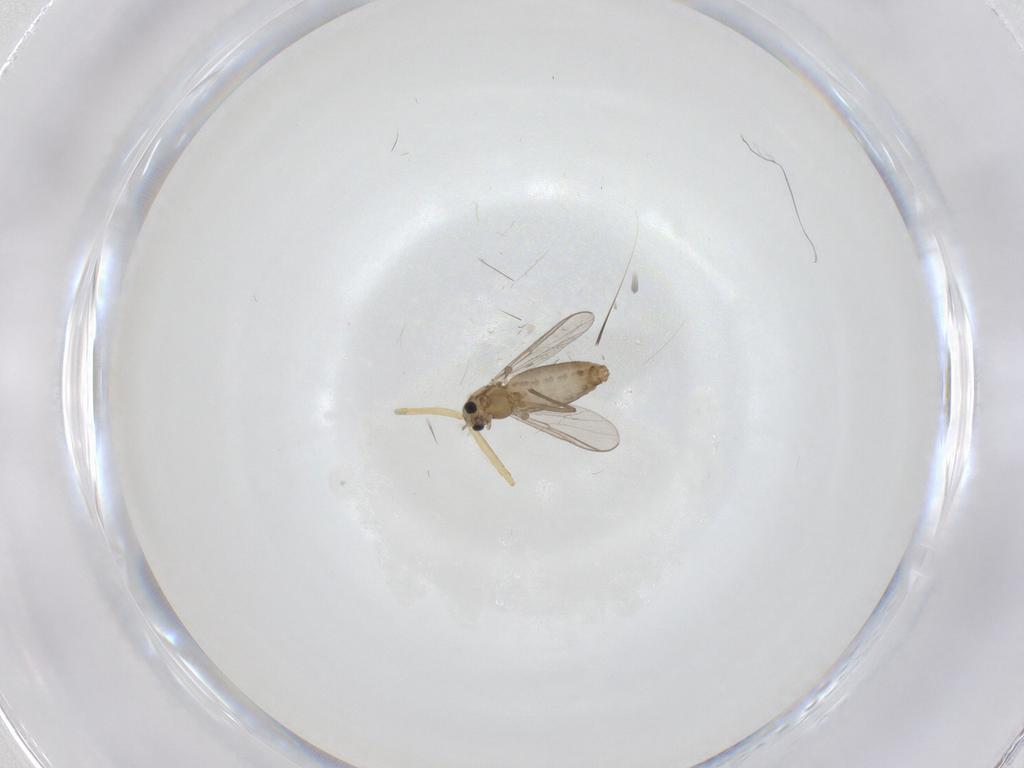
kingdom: Animalia
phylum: Arthropoda
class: Insecta
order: Diptera
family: Chironomidae
